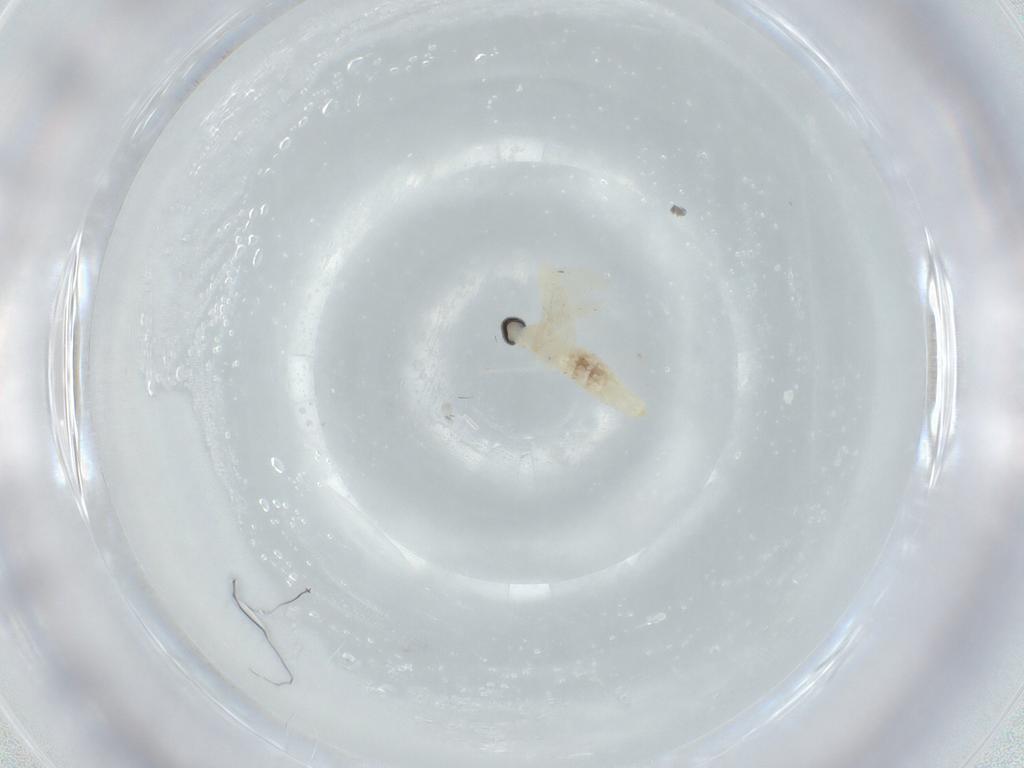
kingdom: Animalia
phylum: Arthropoda
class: Insecta
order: Diptera
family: Cecidomyiidae
